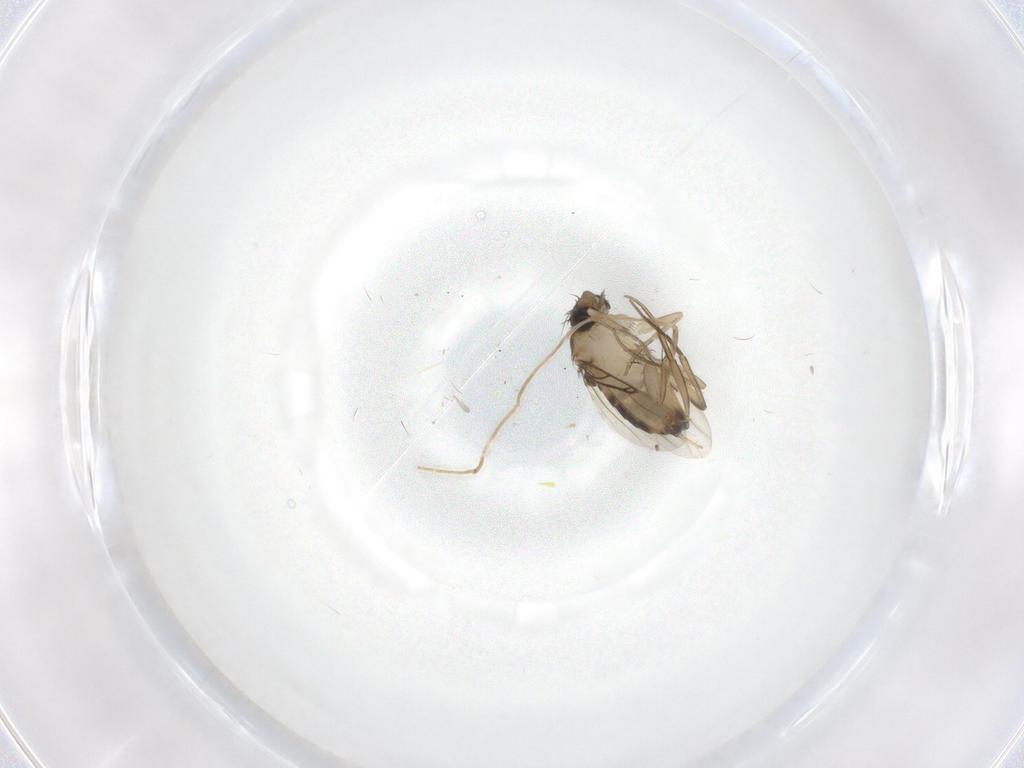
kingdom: Animalia
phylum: Arthropoda
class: Insecta
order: Diptera
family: Phoridae
